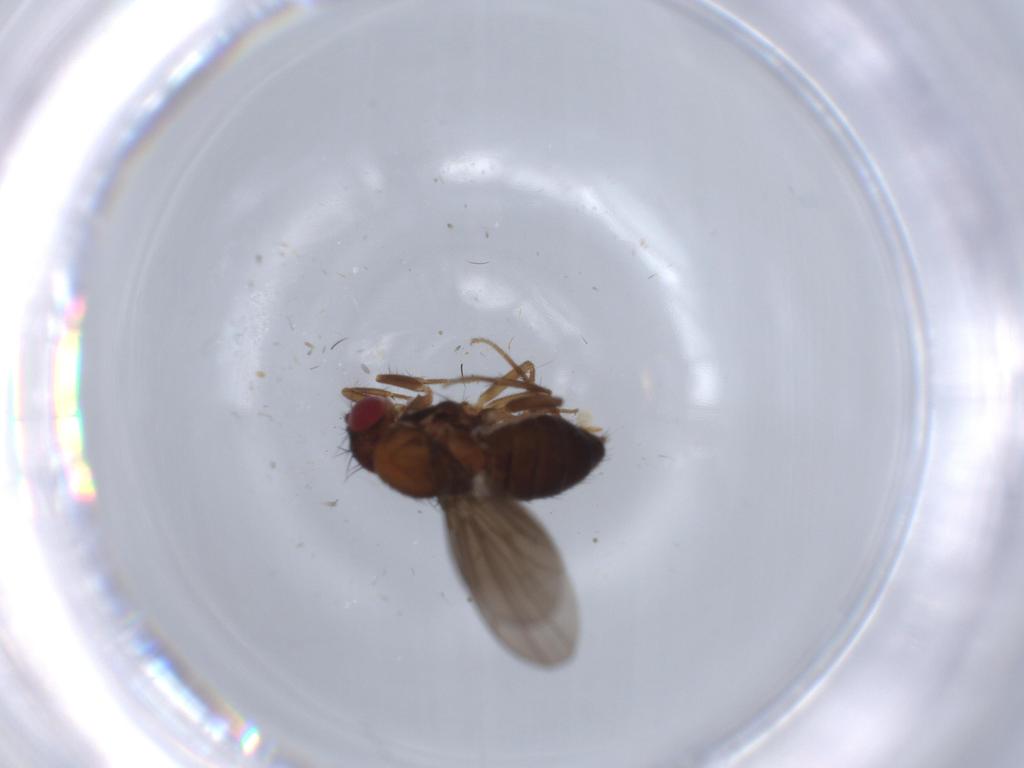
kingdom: Animalia
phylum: Arthropoda
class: Insecta
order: Diptera
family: Drosophilidae
